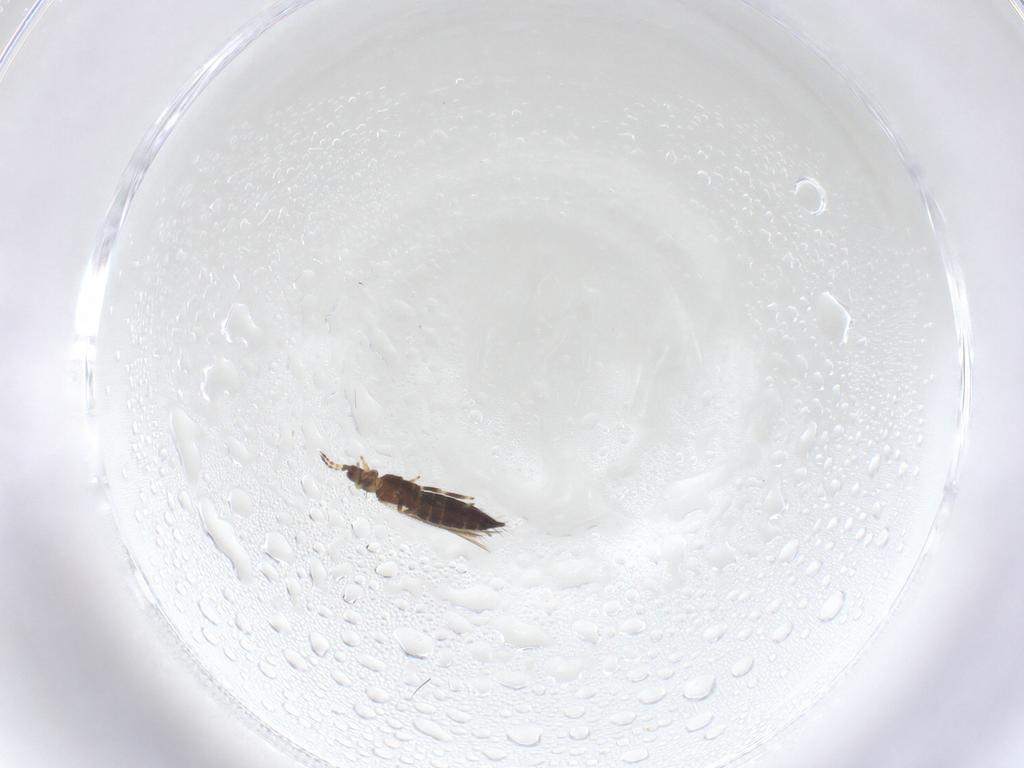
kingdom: Animalia
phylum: Arthropoda
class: Insecta
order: Thysanoptera
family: Thripidae
